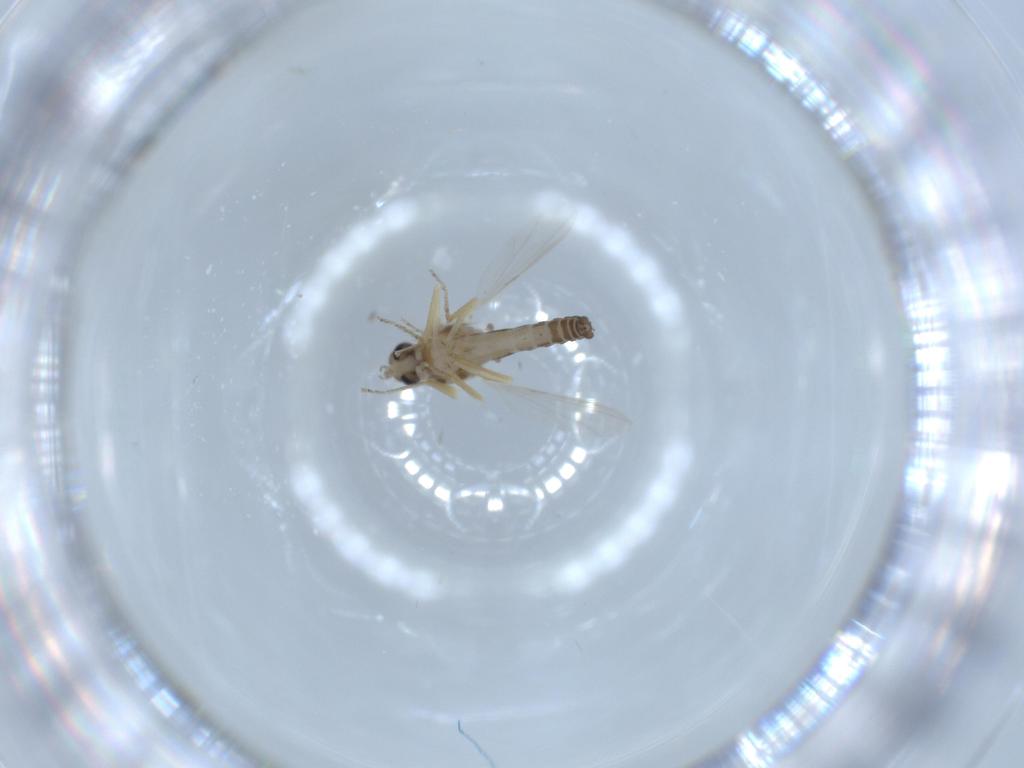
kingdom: Animalia
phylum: Arthropoda
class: Insecta
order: Diptera
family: Ceratopogonidae
